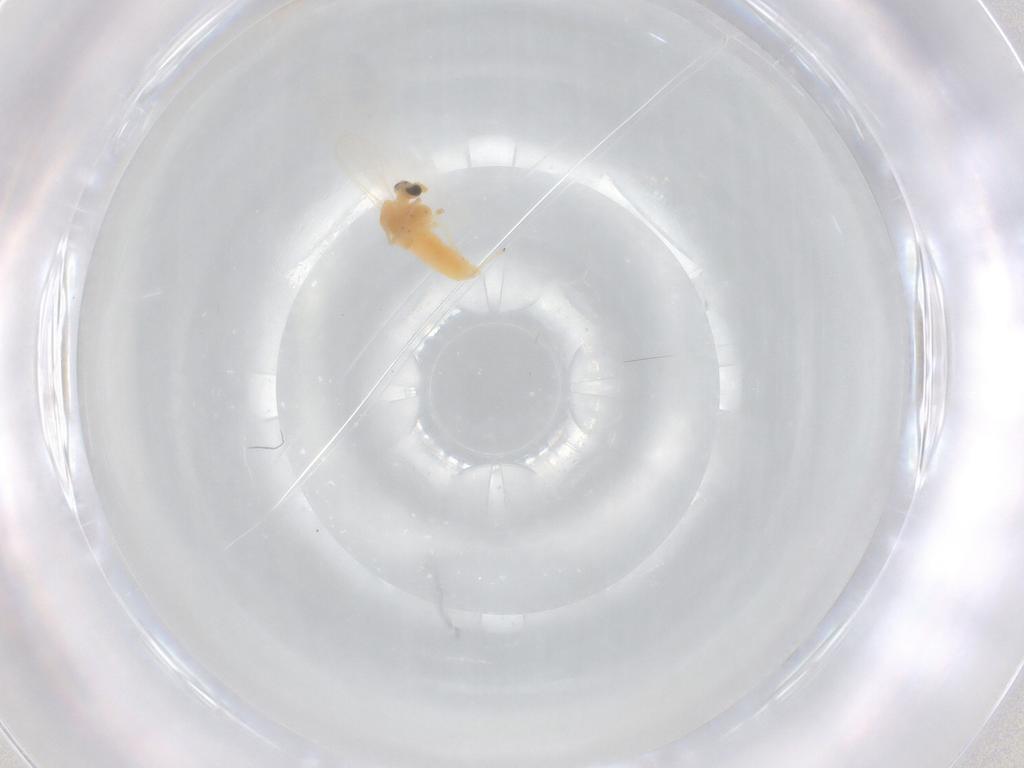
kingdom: Animalia
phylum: Arthropoda
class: Insecta
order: Diptera
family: Chironomidae
